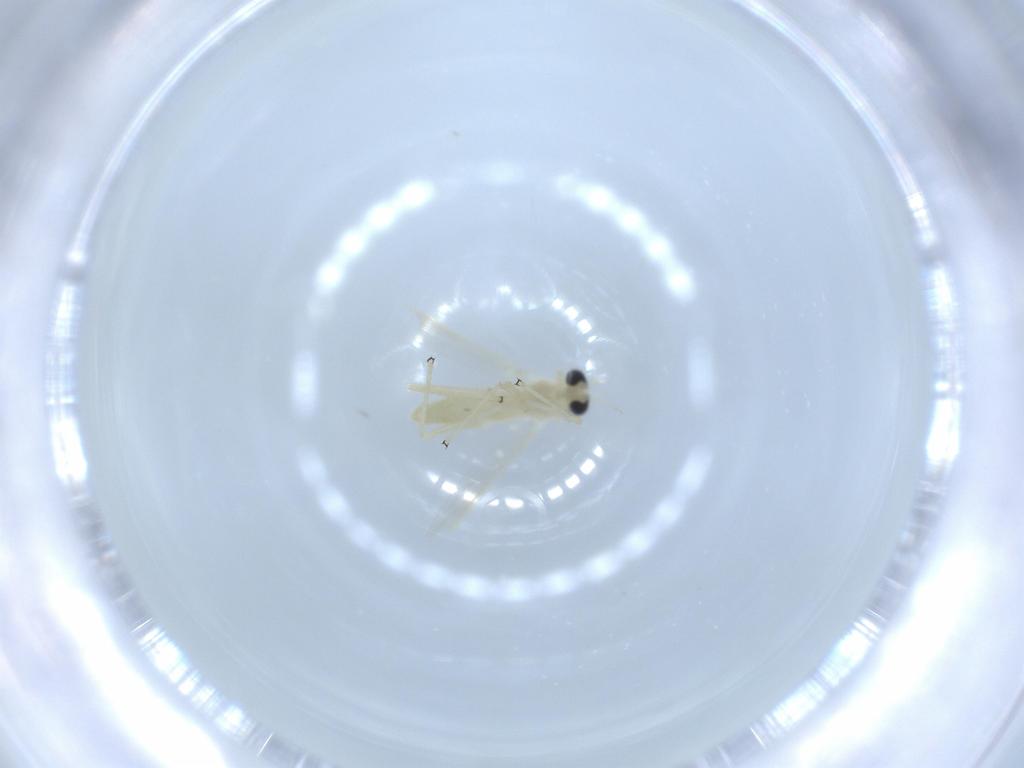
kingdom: Animalia
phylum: Arthropoda
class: Insecta
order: Diptera
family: Chironomidae
